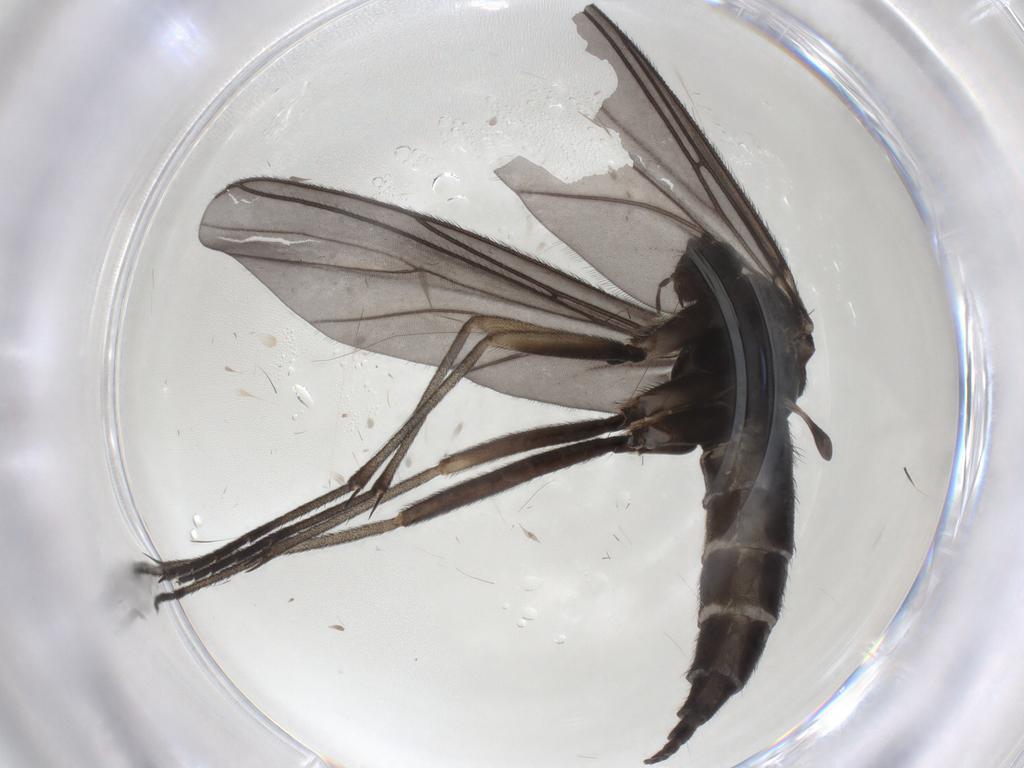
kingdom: Animalia
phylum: Arthropoda
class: Insecta
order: Diptera
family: Sciaridae
